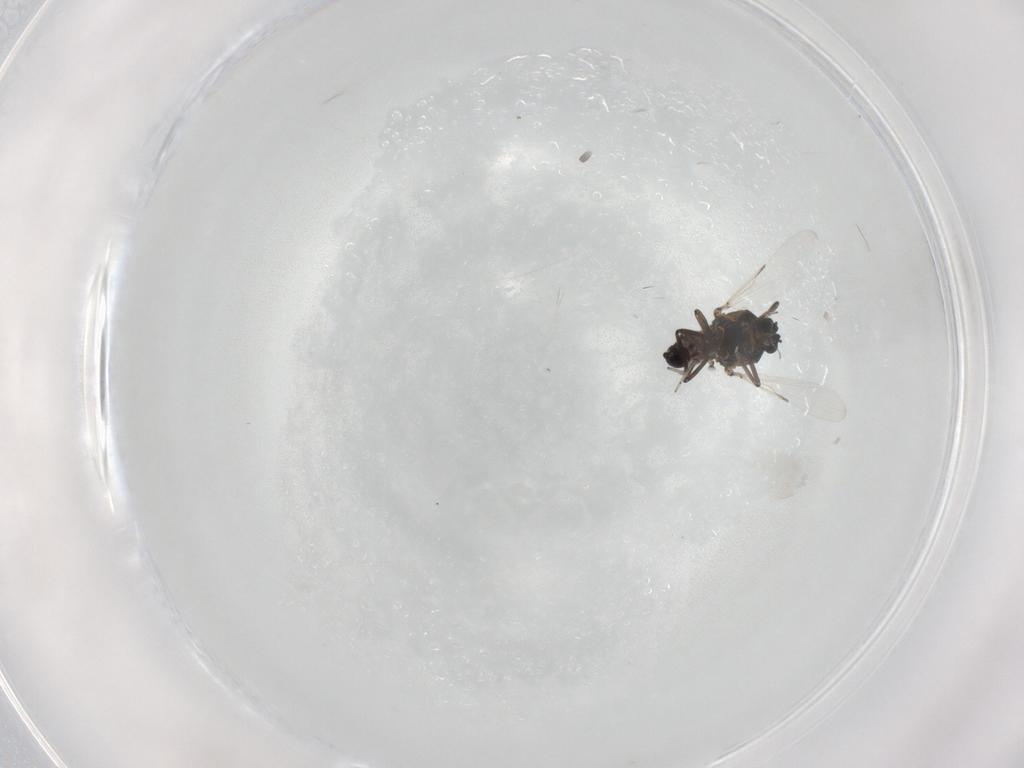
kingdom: Animalia
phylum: Arthropoda
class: Insecta
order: Diptera
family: Ceratopogonidae
